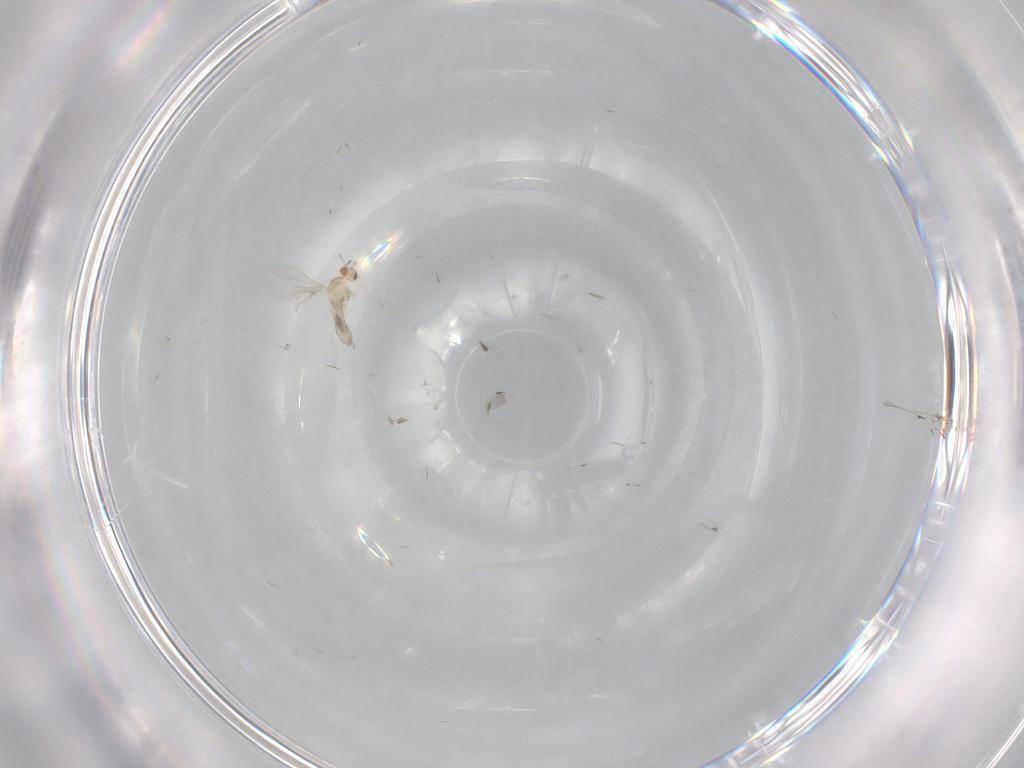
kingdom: Animalia
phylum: Arthropoda
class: Insecta
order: Diptera
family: Cecidomyiidae
